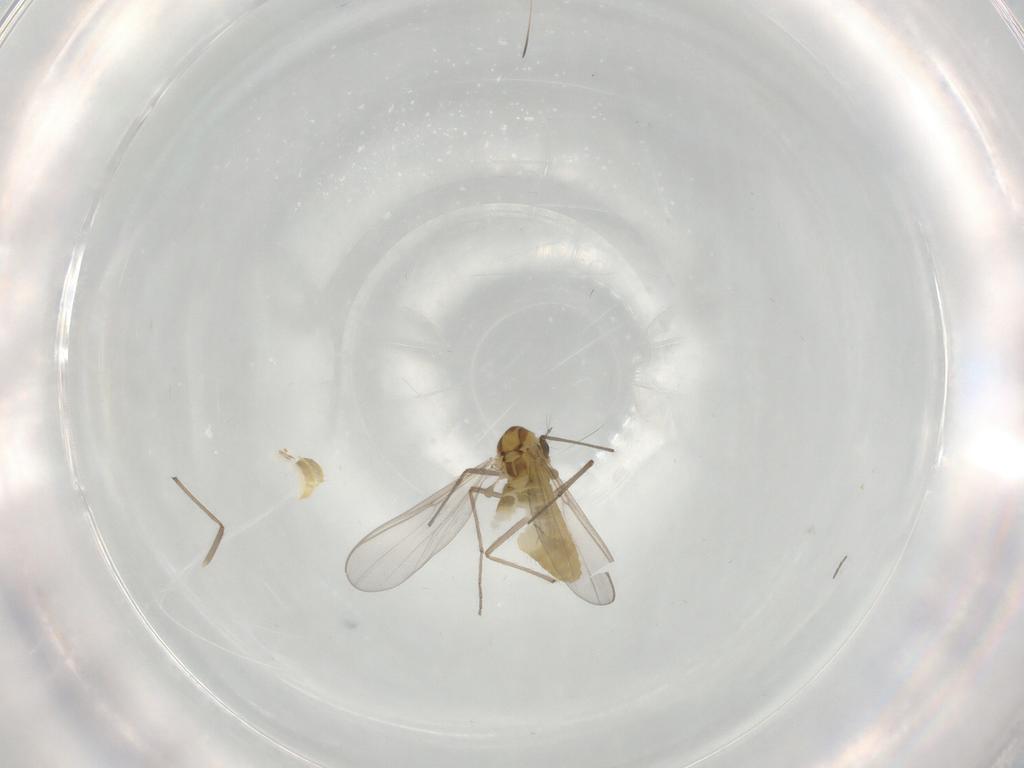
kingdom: Animalia
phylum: Arthropoda
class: Insecta
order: Diptera
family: Chironomidae
